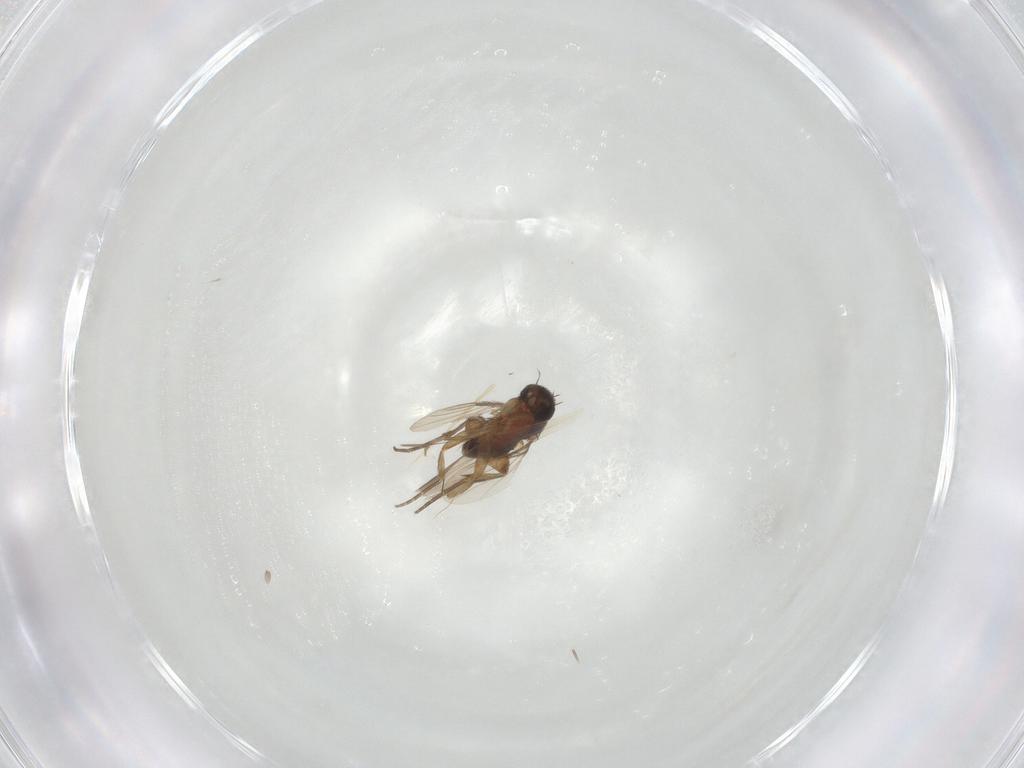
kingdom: Animalia
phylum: Arthropoda
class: Insecta
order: Diptera
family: Phoridae
